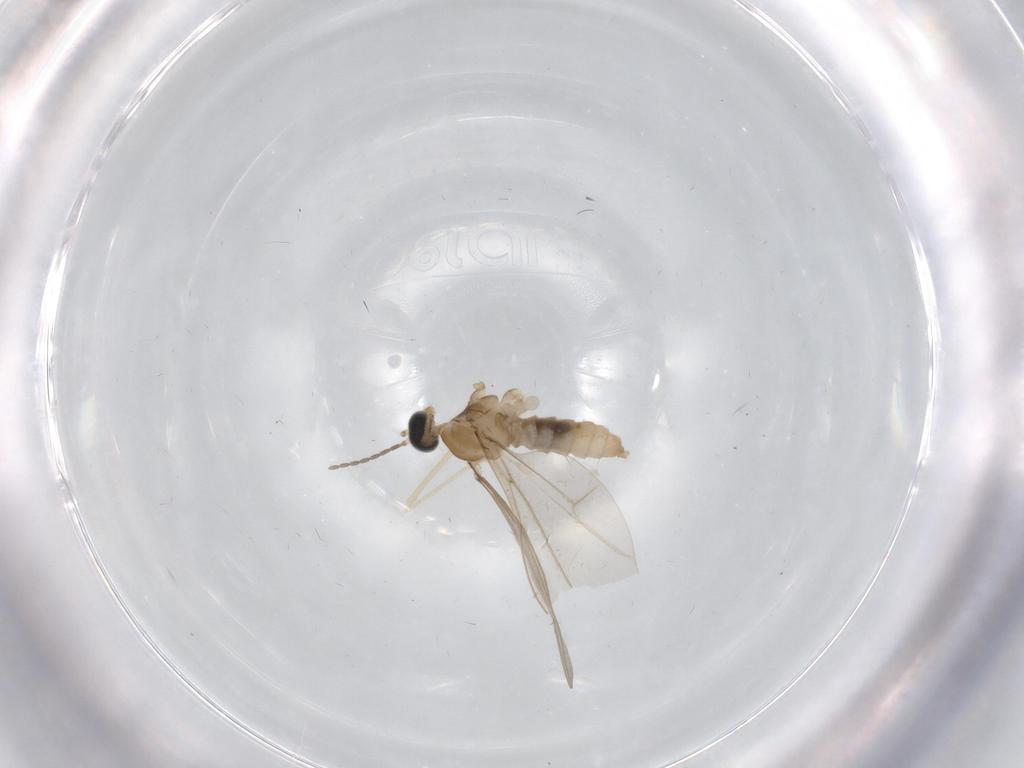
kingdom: Animalia
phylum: Arthropoda
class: Insecta
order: Diptera
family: Cecidomyiidae
